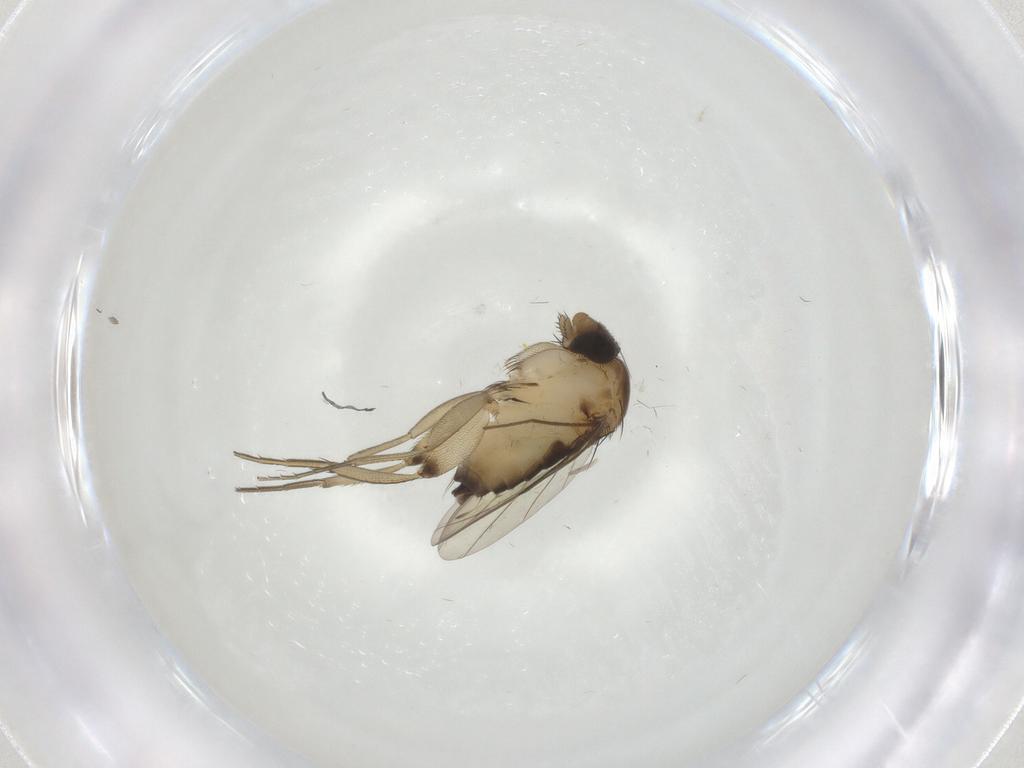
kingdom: Animalia
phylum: Arthropoda
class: Insecta
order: Diptera
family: Phoridae
